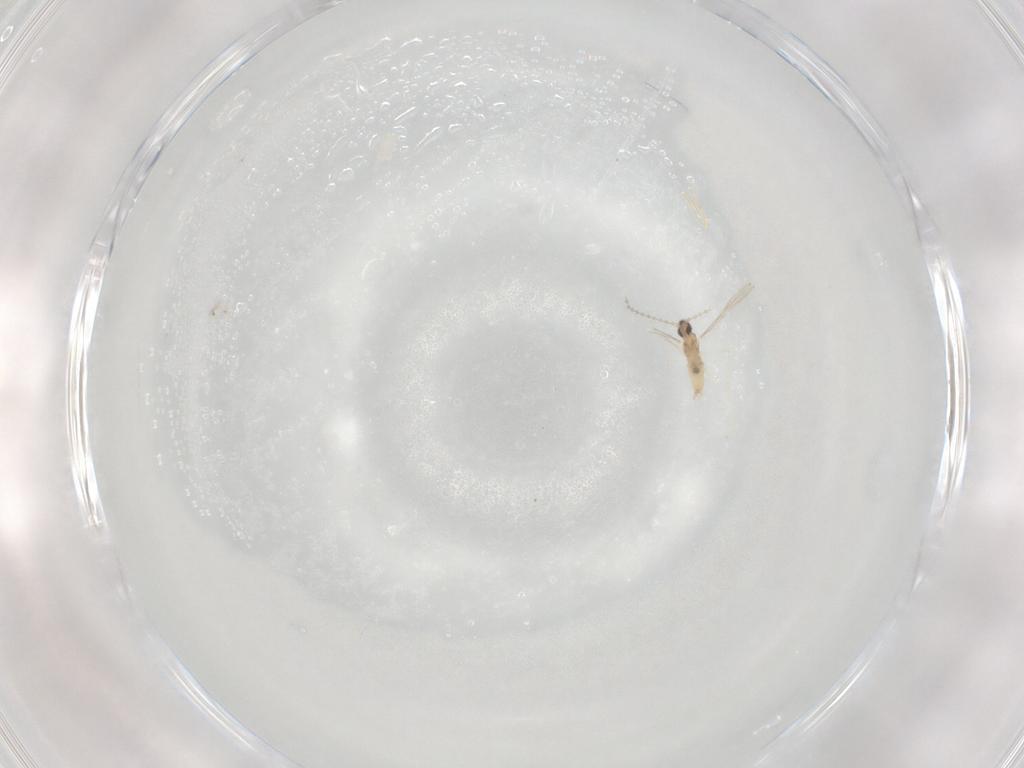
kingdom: Animalia
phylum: Arthropoda
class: Insecta
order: Diptera
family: Cecidomyiidae
